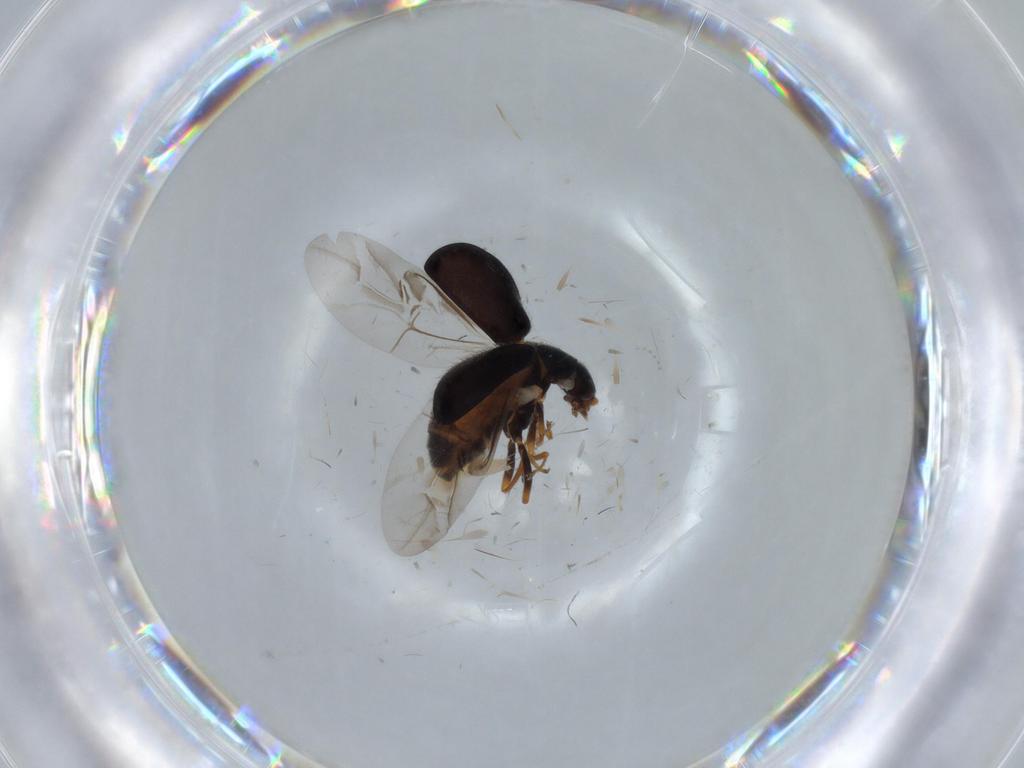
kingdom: Animalia
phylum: Arthropoda
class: Insecta
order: Coleoptera
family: Melyridae
